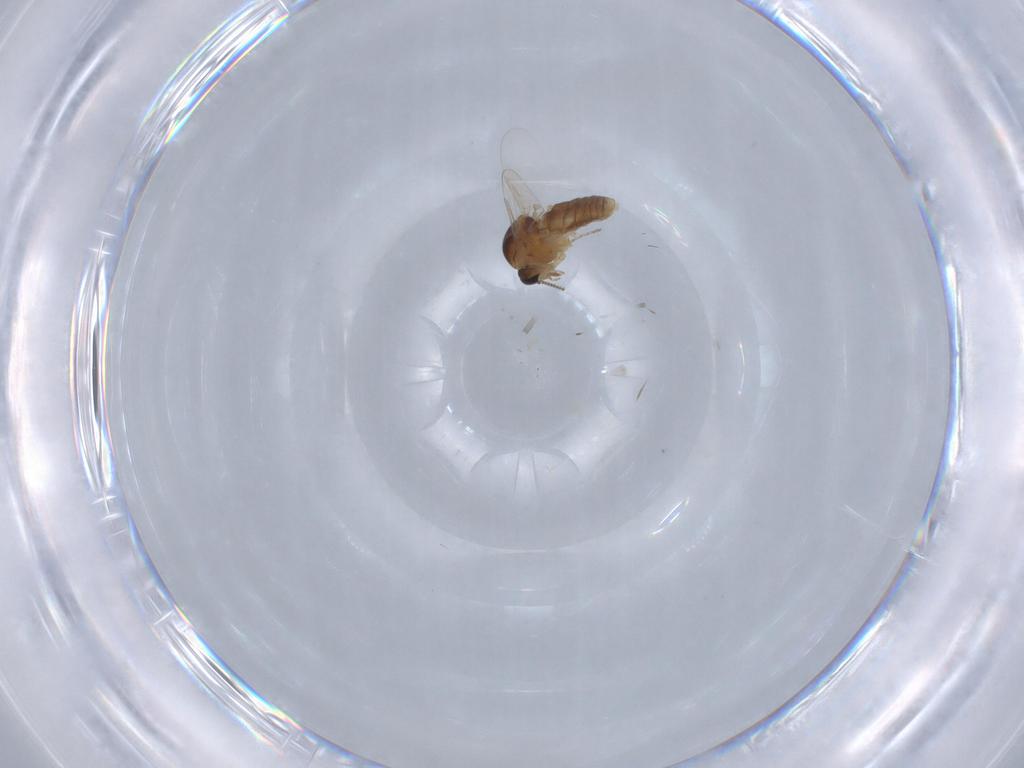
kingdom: Animalia
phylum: Arthropoda
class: Insecta
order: Diptera
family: Ceratopogonidae
